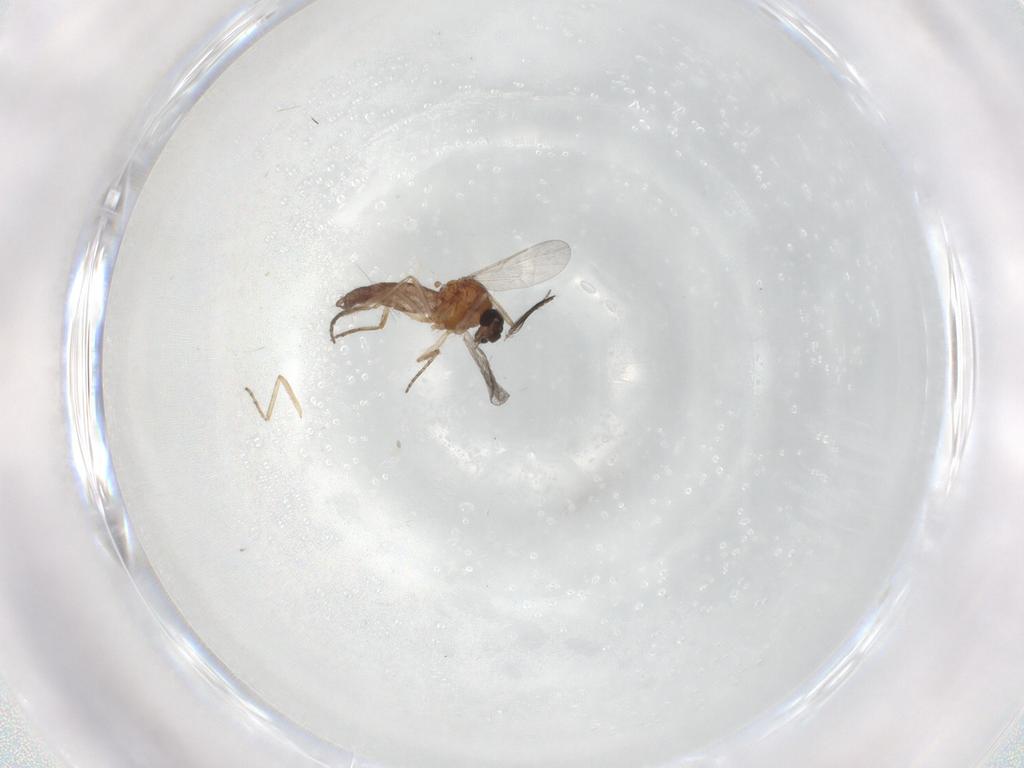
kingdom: Animalia
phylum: Arthropoda
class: Insecta
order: Diptera
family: Ceratopogonidae
